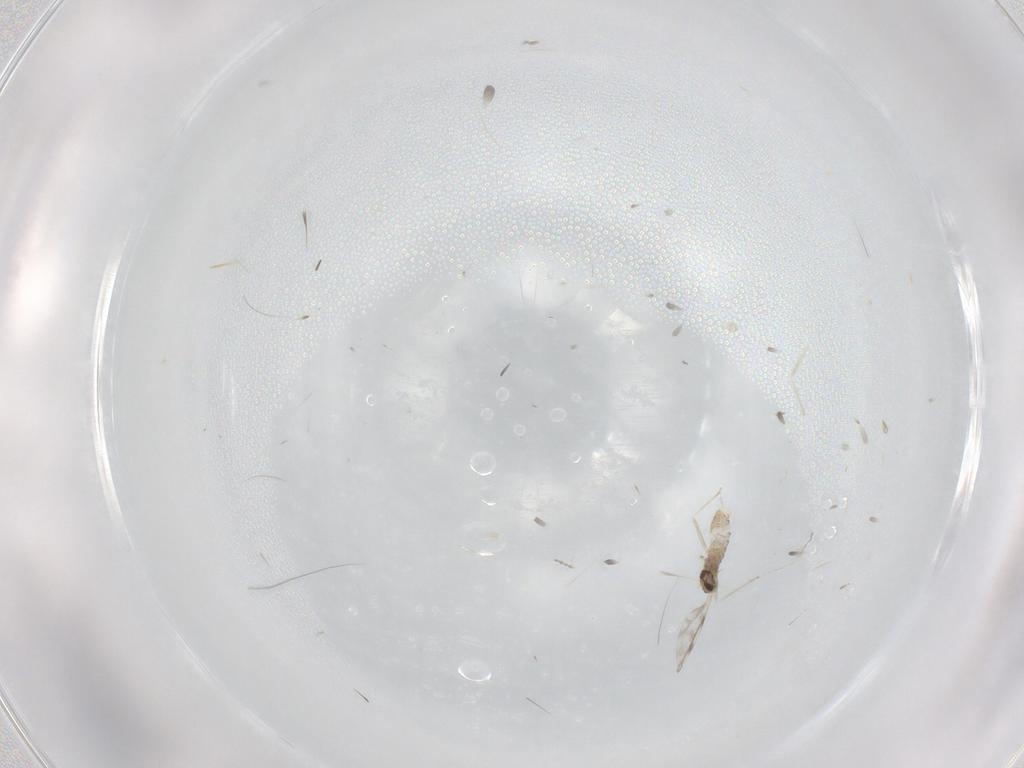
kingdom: Animalia
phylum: Arthropoda
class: Insecta
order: Diptera
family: Cecidomyiidae
